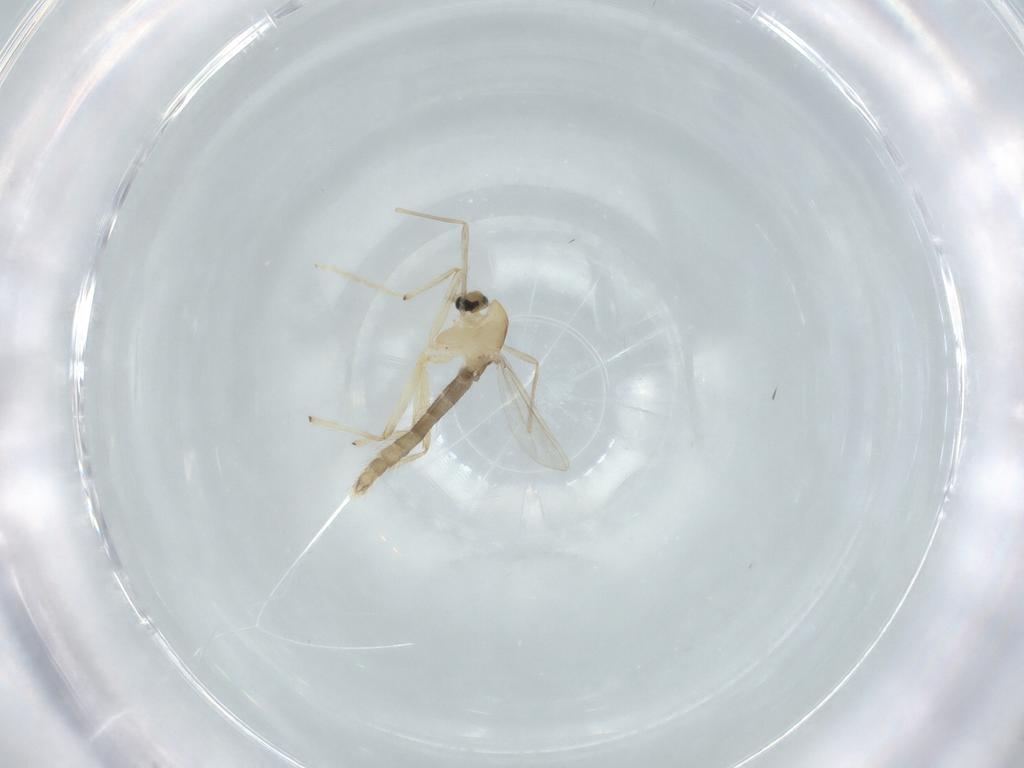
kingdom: Animalia
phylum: Arthropoda
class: Insecta
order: Diptera
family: Chironomidae
